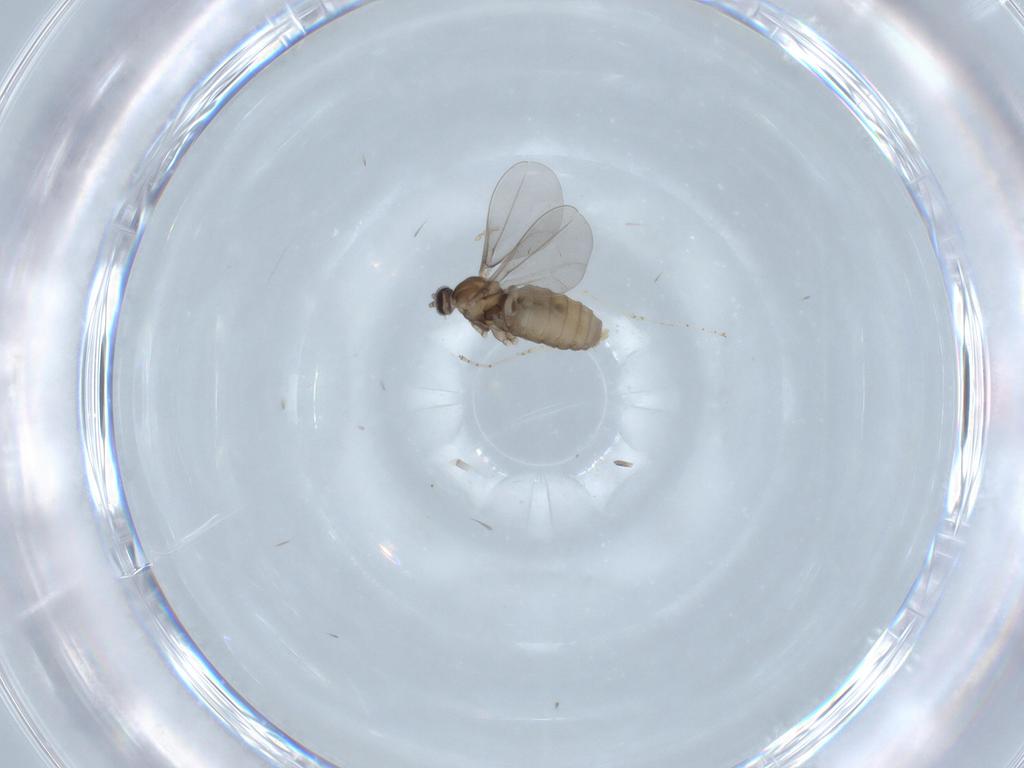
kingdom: Animalia
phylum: Arthropoda
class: Insecta
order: Diptera
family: Cecidomyiidae
